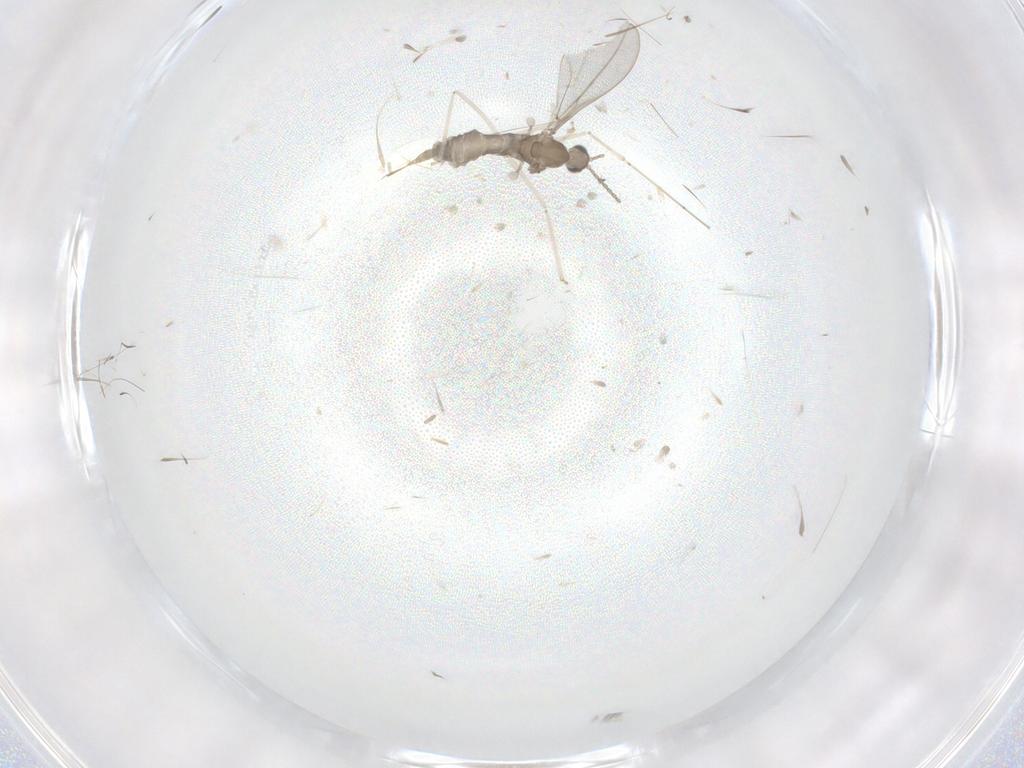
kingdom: Animalia
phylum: Arthropoda
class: Insecta
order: Diptera
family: Cecidomyiidae
